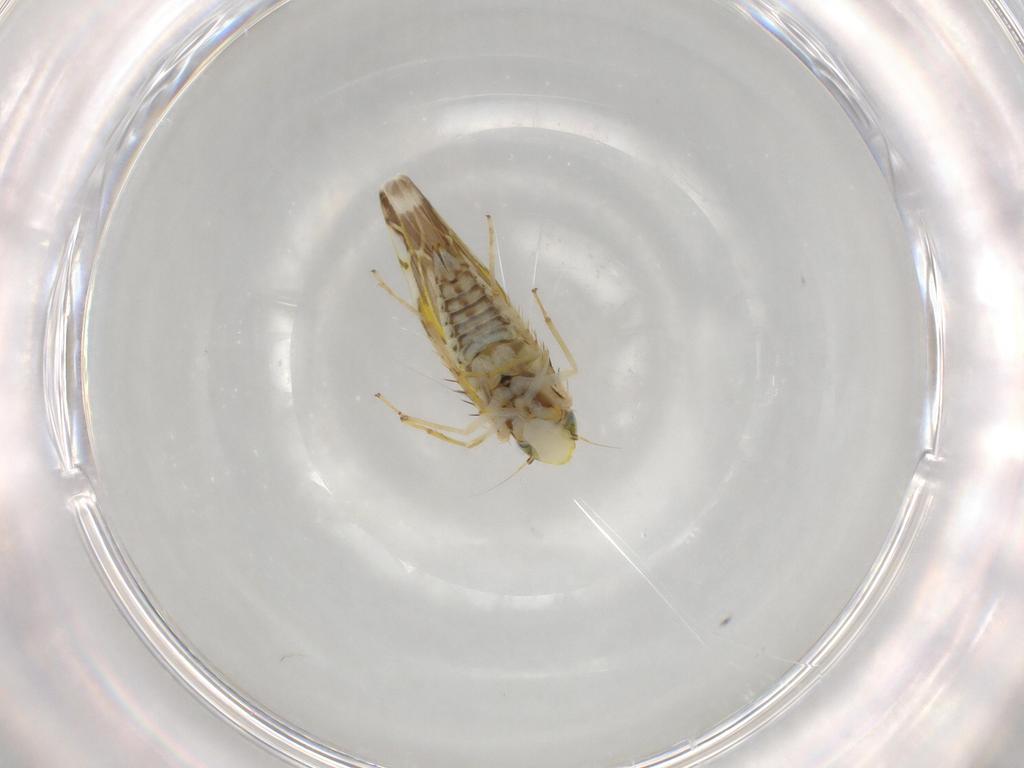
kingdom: Animalia
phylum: Arthropoda
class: Insecta
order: Hemiptera
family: Cicadellidae
